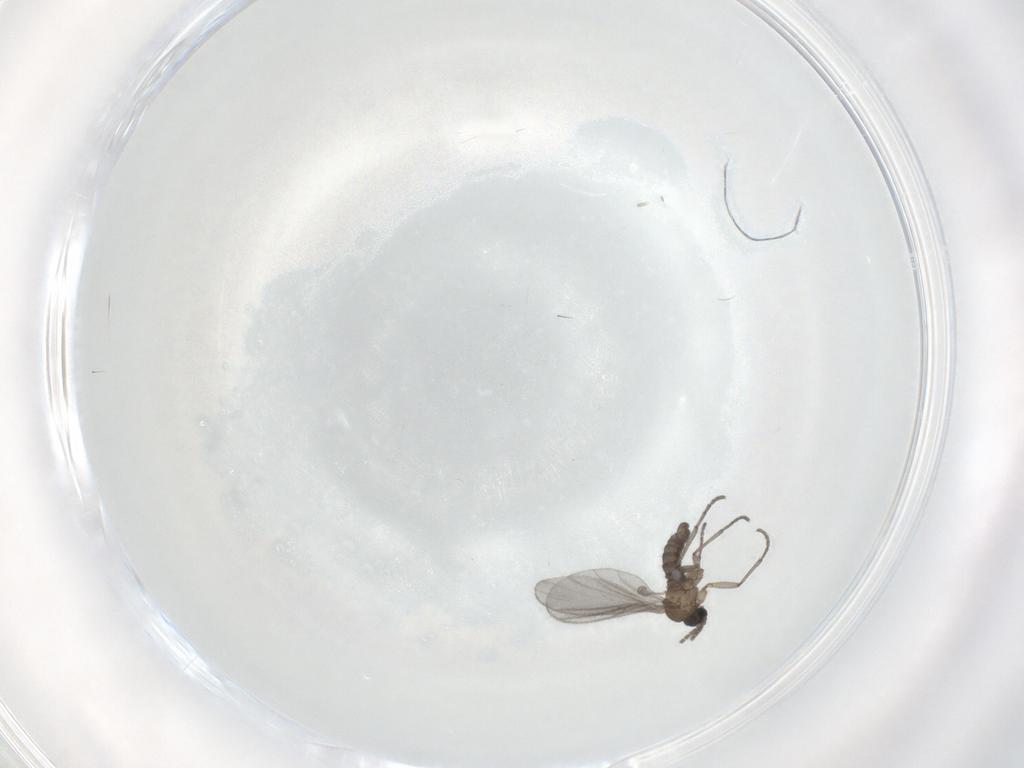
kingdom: Animalia
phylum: Arthropoda
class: Insecta
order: Diptera
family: Sciaridae
